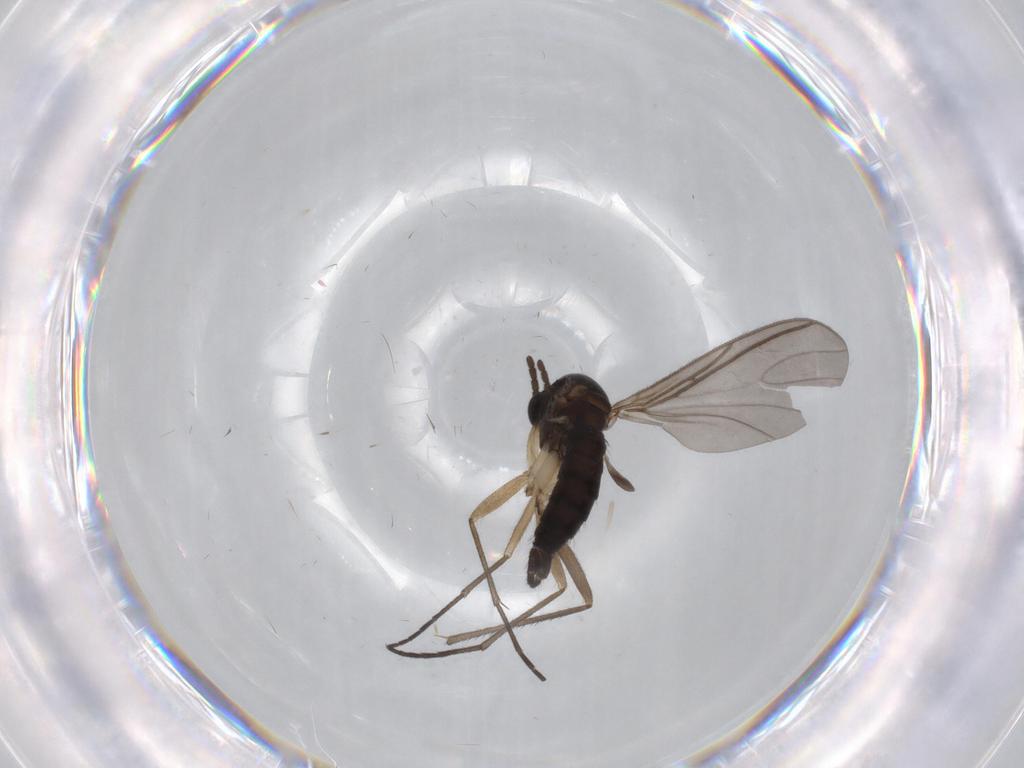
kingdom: Animalia
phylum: Arthropoda
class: Insecta
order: Diptera
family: Sciaridae
